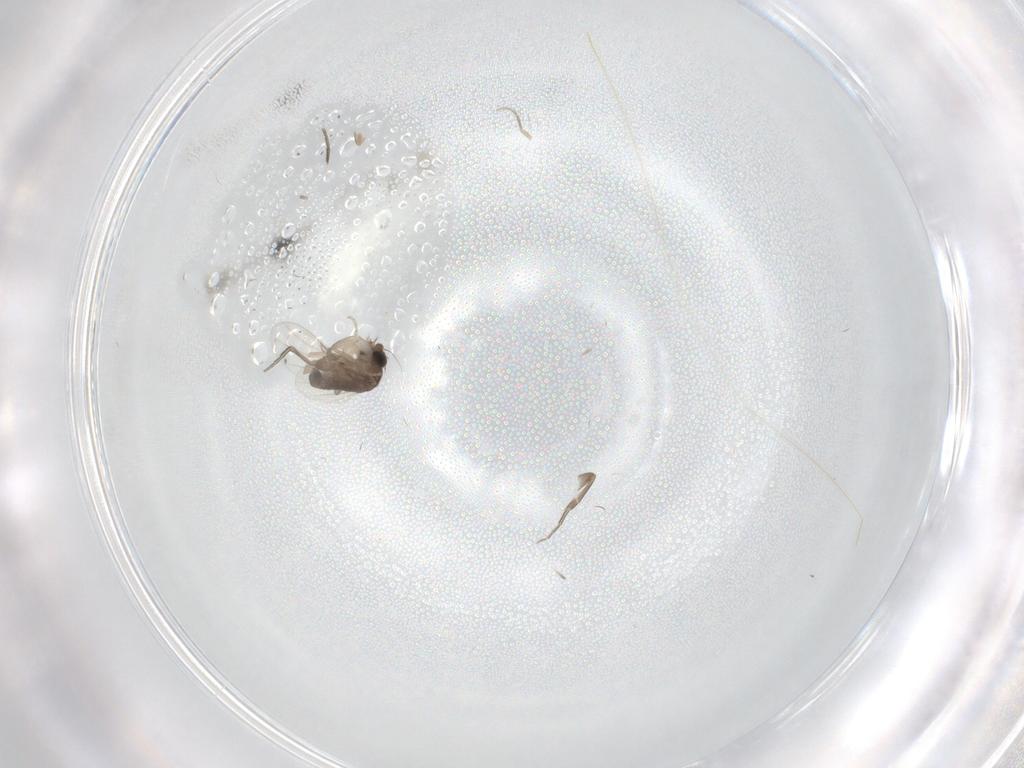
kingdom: Animalia
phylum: Arthropoda
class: Insecta
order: Diptera
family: Phoridae
